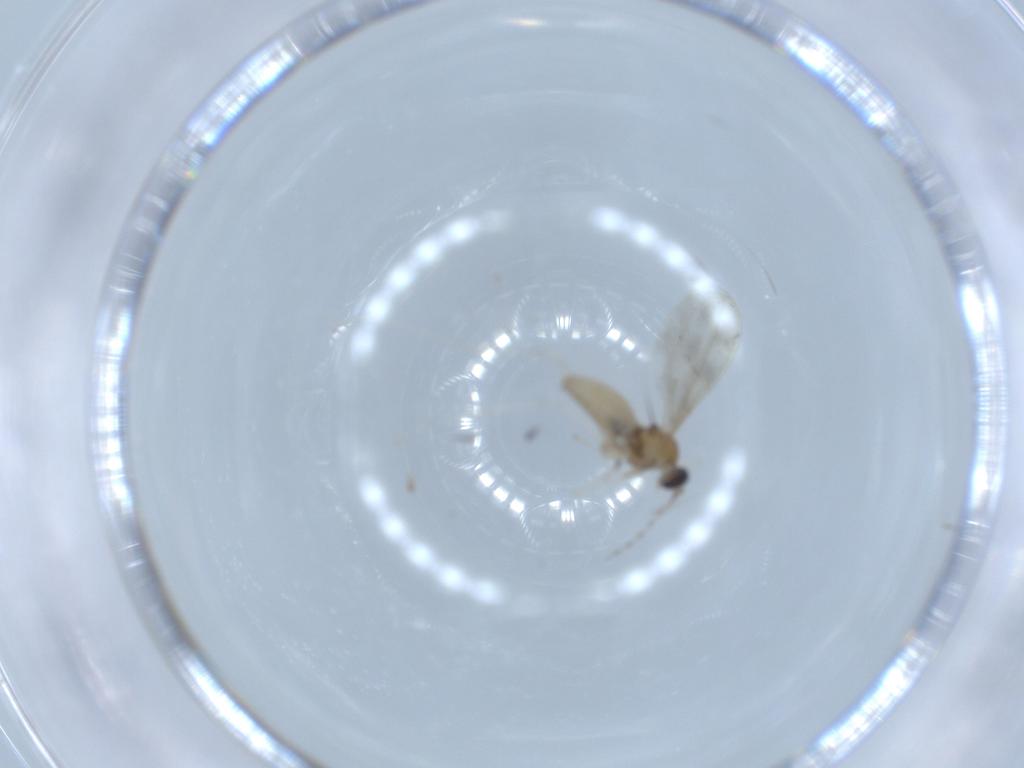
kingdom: Animalia
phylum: Arthropoda
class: Insecta
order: Diptera
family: Cecidomyiidae
